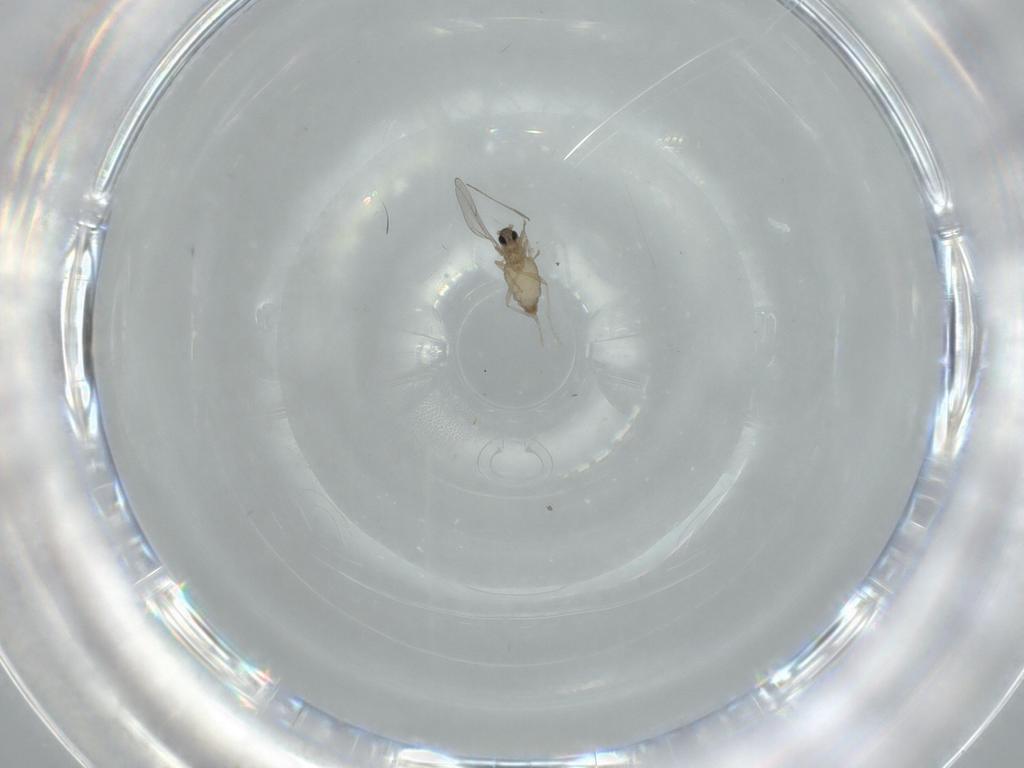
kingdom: Animalia
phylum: Arthropoda
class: Insecta
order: Diptera
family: Cecidomyiidae
